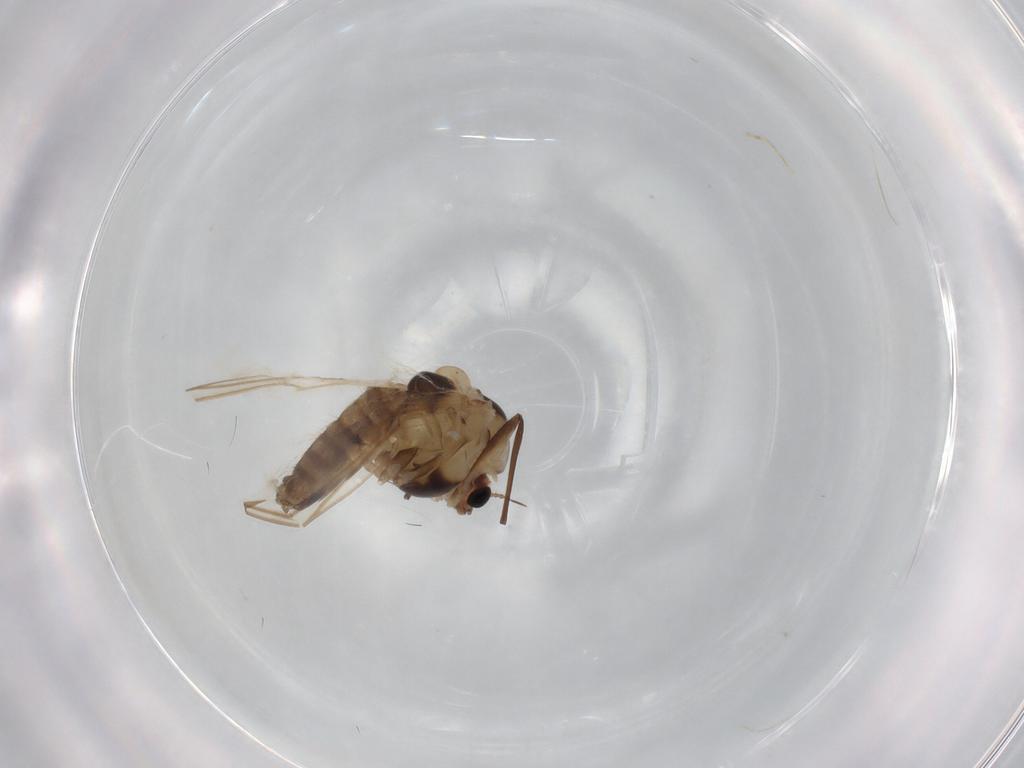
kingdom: Animalia
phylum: Arthropoda
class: Insecta
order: Diptera
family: Chironomidae
